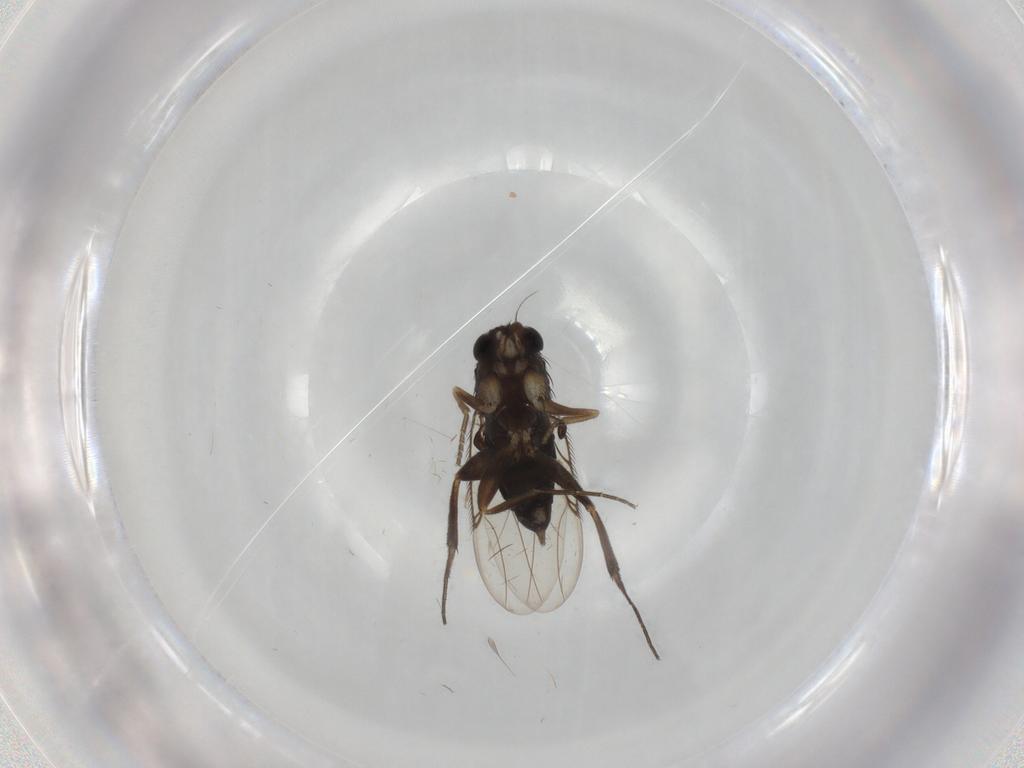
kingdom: Animalia
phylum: Arthropoda
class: Insecta
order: Diptera
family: Phoridae
